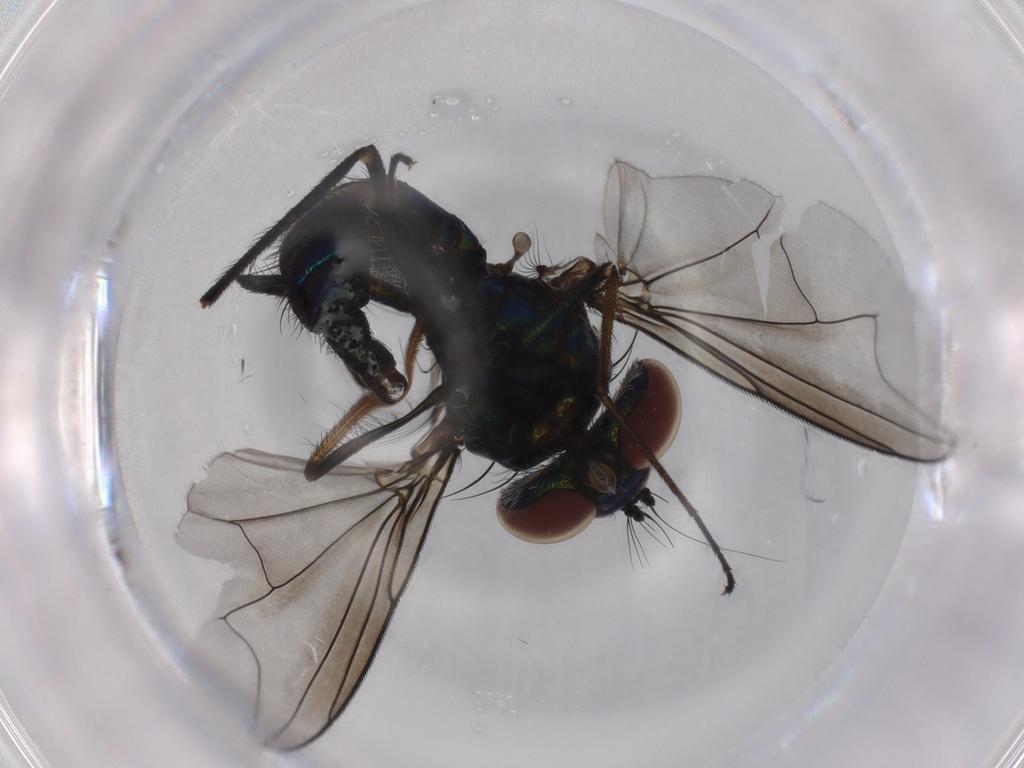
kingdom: Animalia
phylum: Arthropoda
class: Insecta
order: Diptera
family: Dolichopodidae
